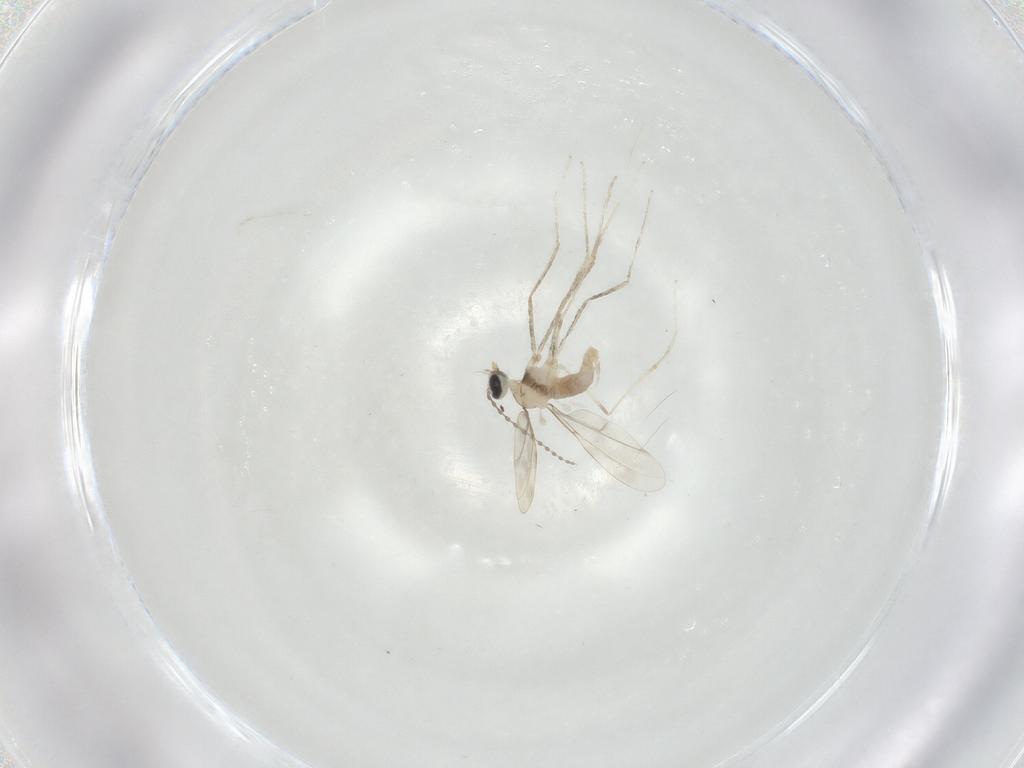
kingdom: Animalia
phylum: Arthropoda
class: Insecta
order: Diptera
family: Cecidomyiidae
